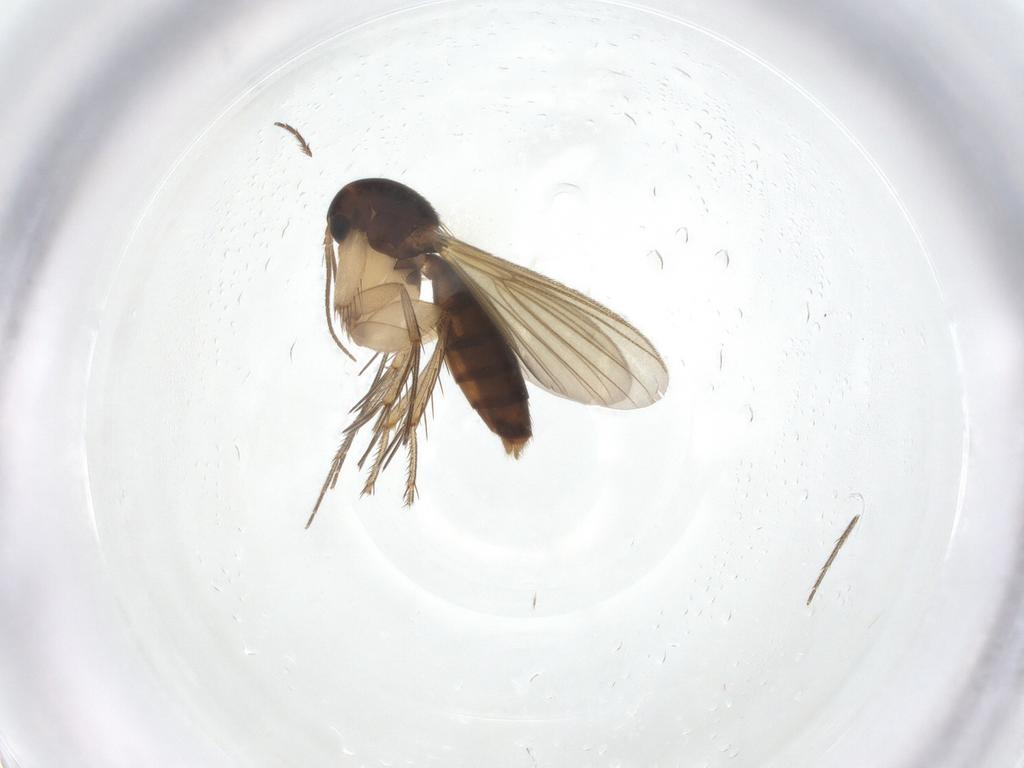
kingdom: Animalia
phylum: Arthropoda
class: Insecta
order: Diptera
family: Mycetophilidae
